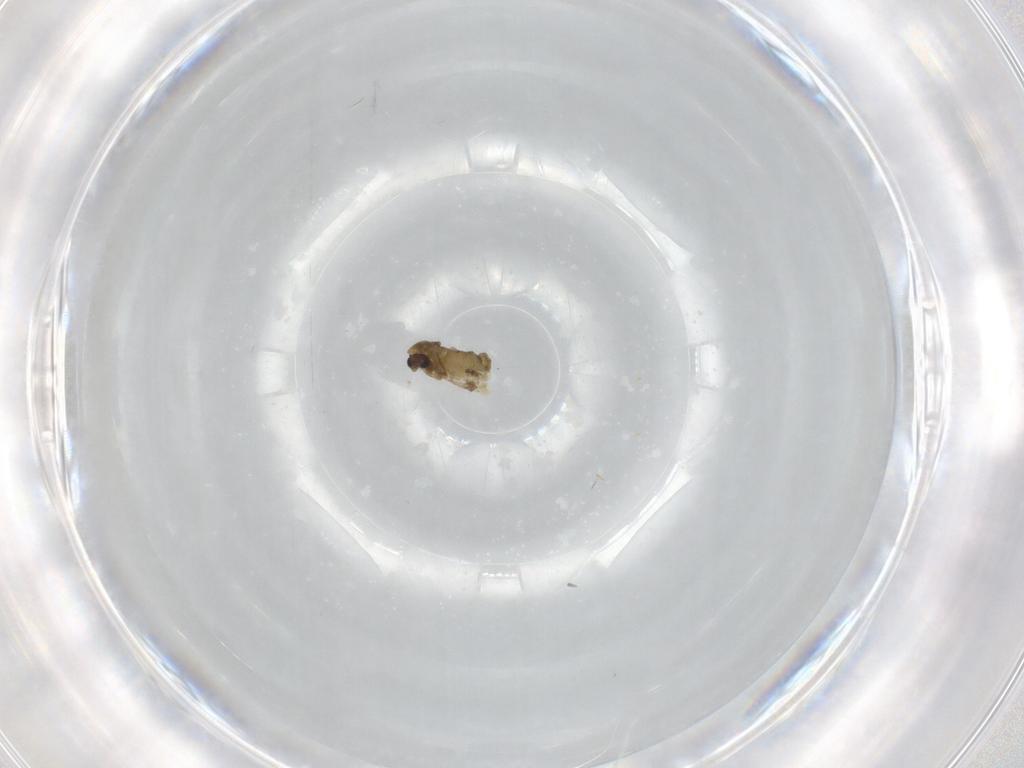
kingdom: Animalia
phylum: Arthropoda
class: Insecta
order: Diptera
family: Chironomidae
